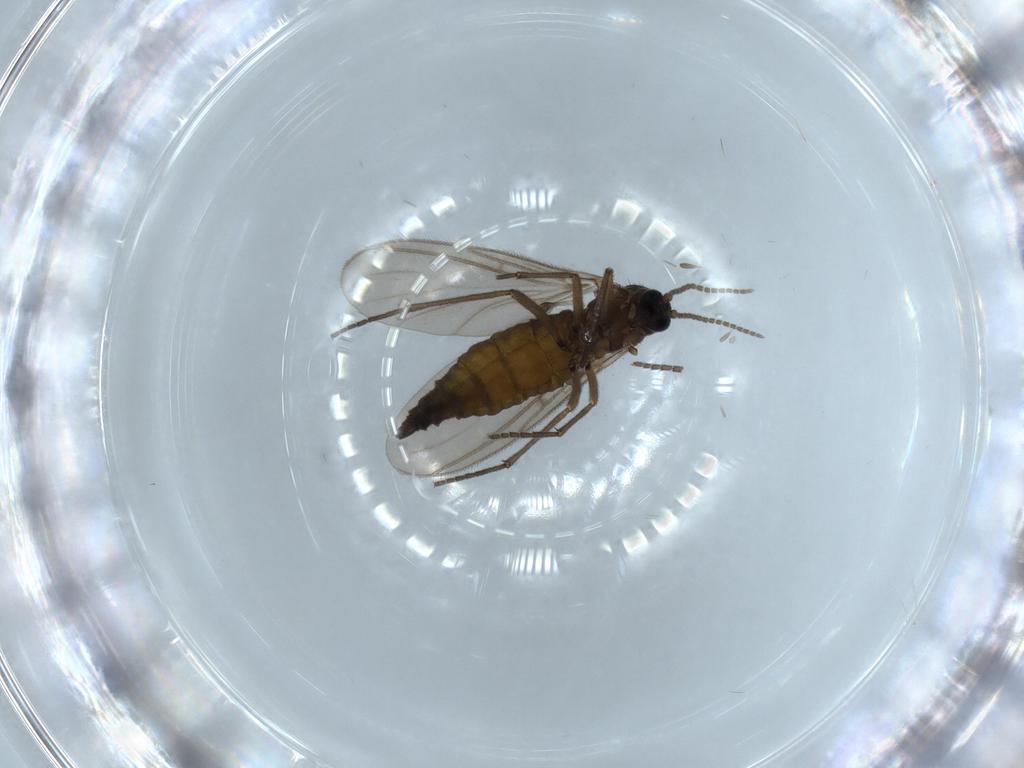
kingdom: Animalia
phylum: Arthropoda
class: Insecta
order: Diptera
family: Sciaridae
